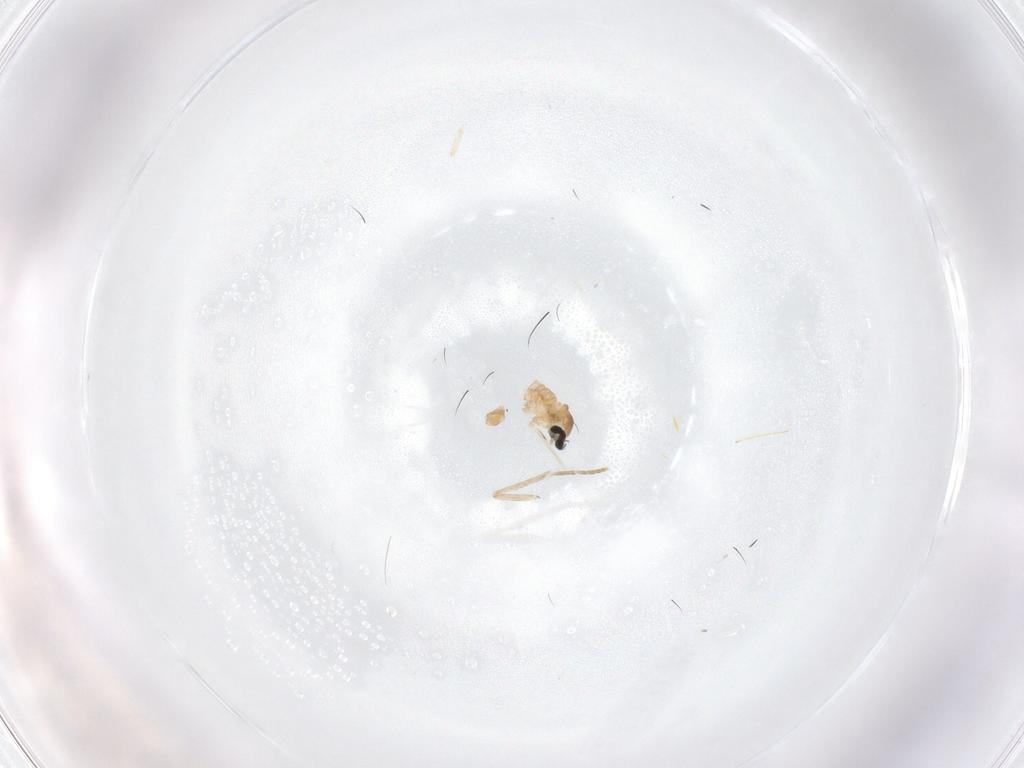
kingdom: Animalia
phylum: Arthropoda
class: Insecta
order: Diptera
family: Cecidomyiidae
